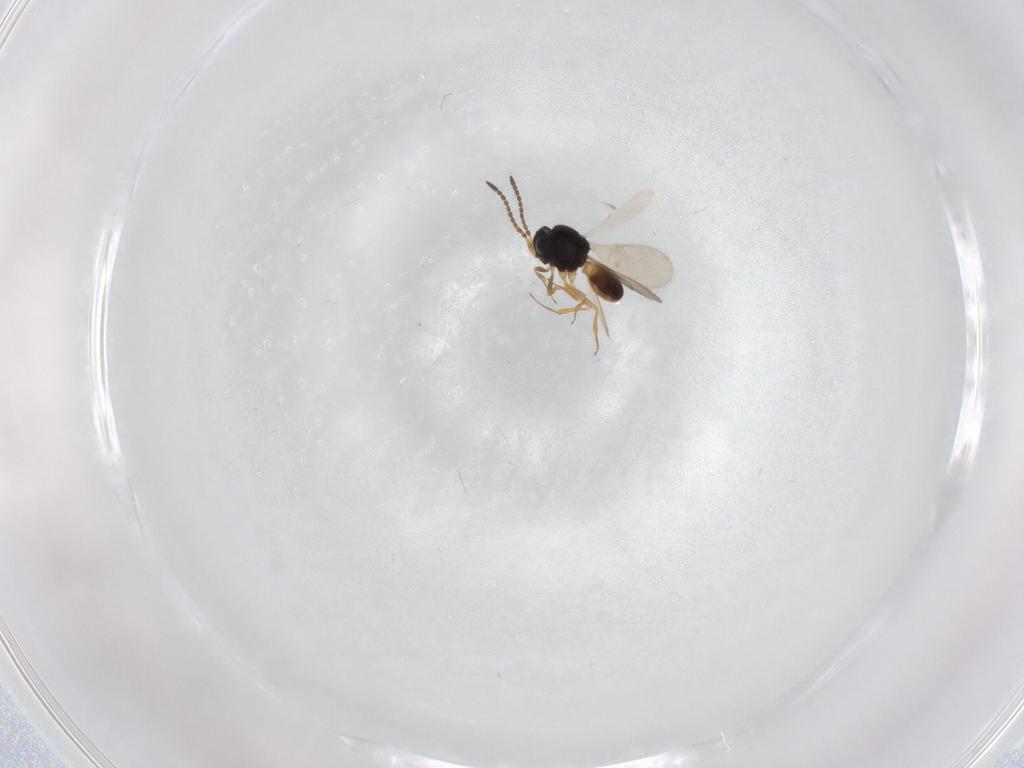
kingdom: Animalia
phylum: Arthropoda
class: Insecta
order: Hymenoptera
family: Scelionidae
